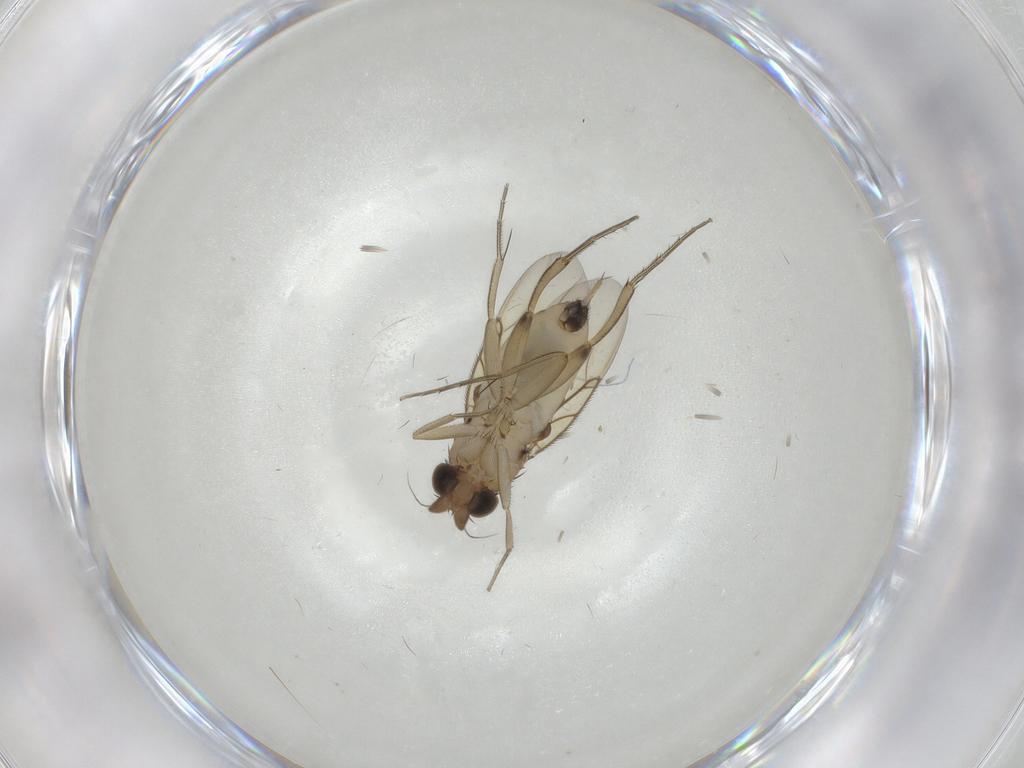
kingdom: Animalia
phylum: Arthropoda
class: Insecta
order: Diptera
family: Phoridae
